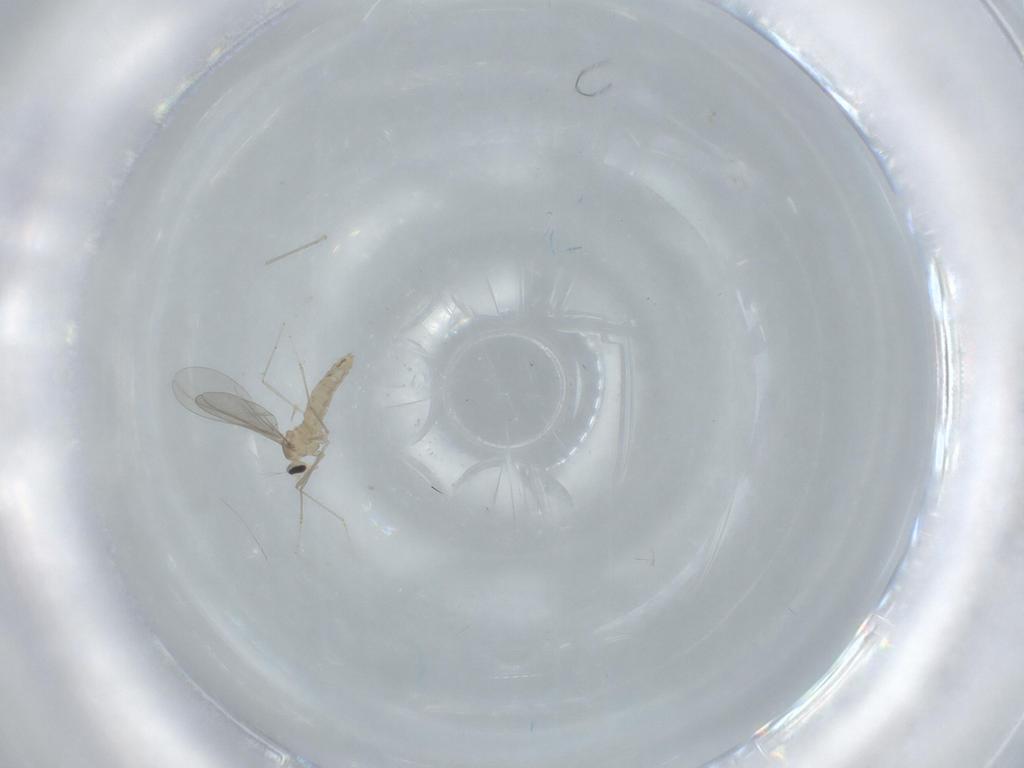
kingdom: Animalia
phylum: Arthropoda
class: Insecta
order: Diptera
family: Cecidomyiidae
